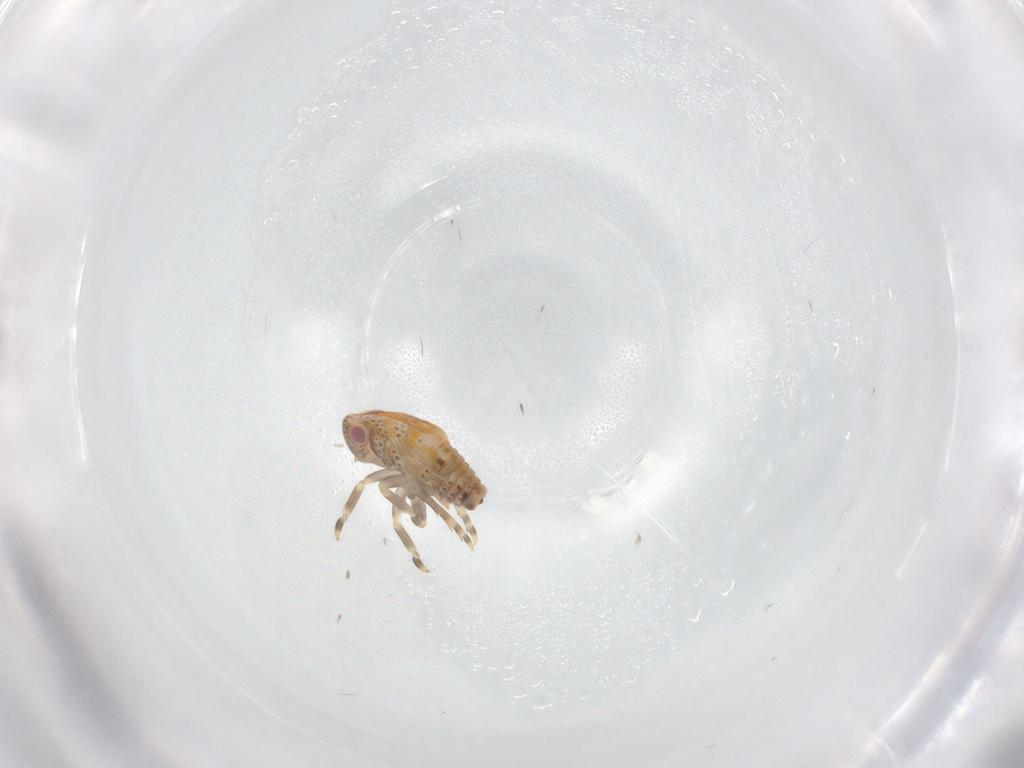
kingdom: Animalia
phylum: Arthropoda
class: Insecta
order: Hemiptera
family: Flatidae
